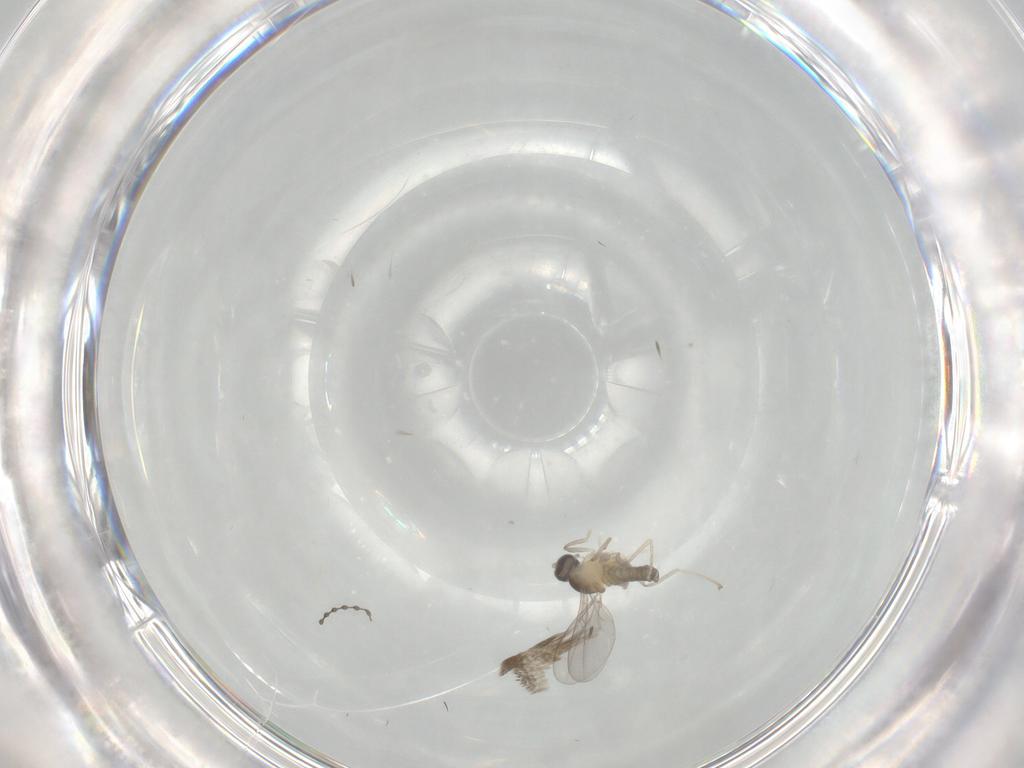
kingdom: Animalia
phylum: Arthropoda
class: Insecta
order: Diptera
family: Cecidomyiidae
